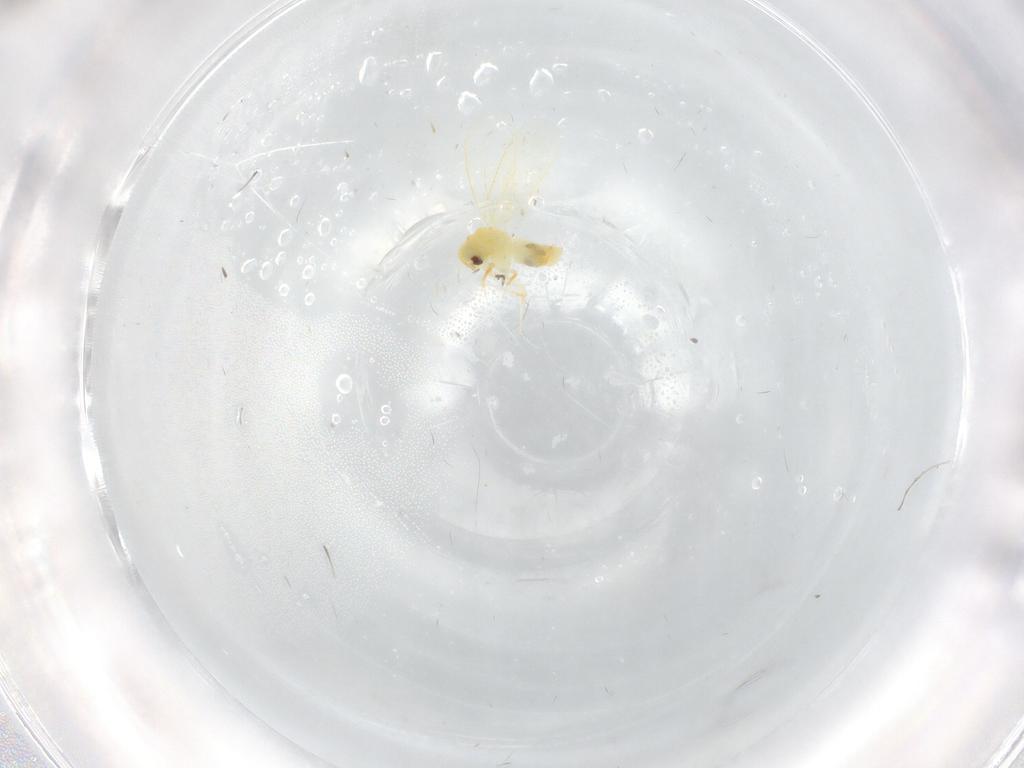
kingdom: Animalia
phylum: Arthropoda
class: Insecta
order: Diptera
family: Chironomidae
